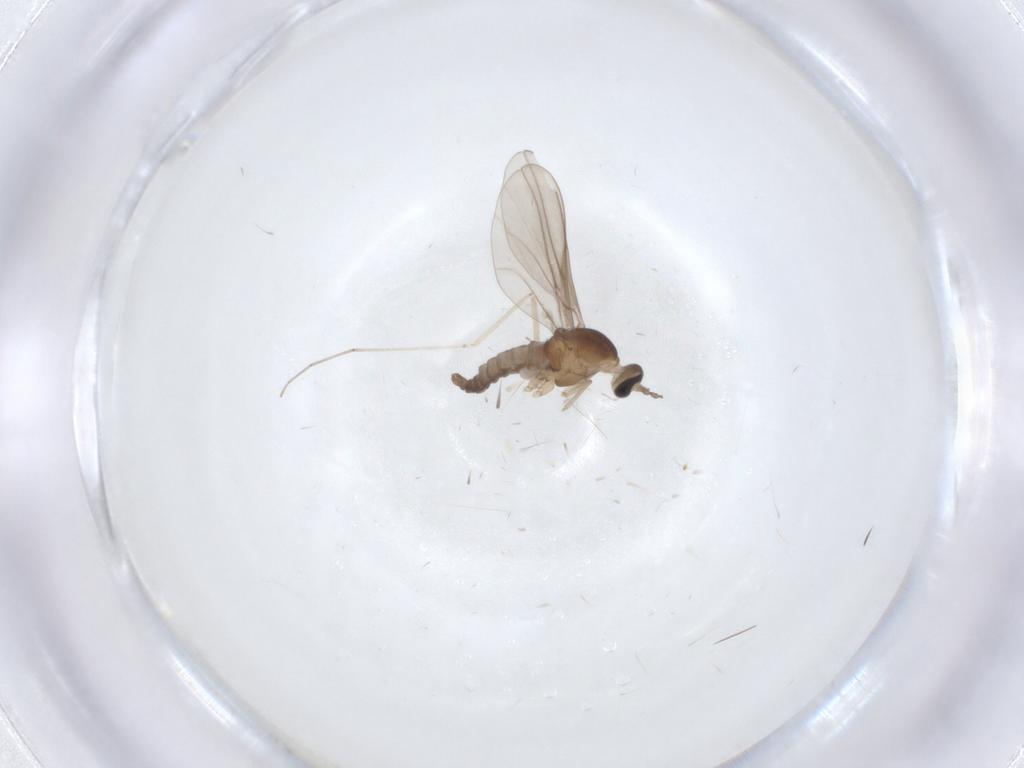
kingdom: Animalia
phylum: Arthropoda
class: Insecta
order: Diptera
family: Cecidomyiidae
